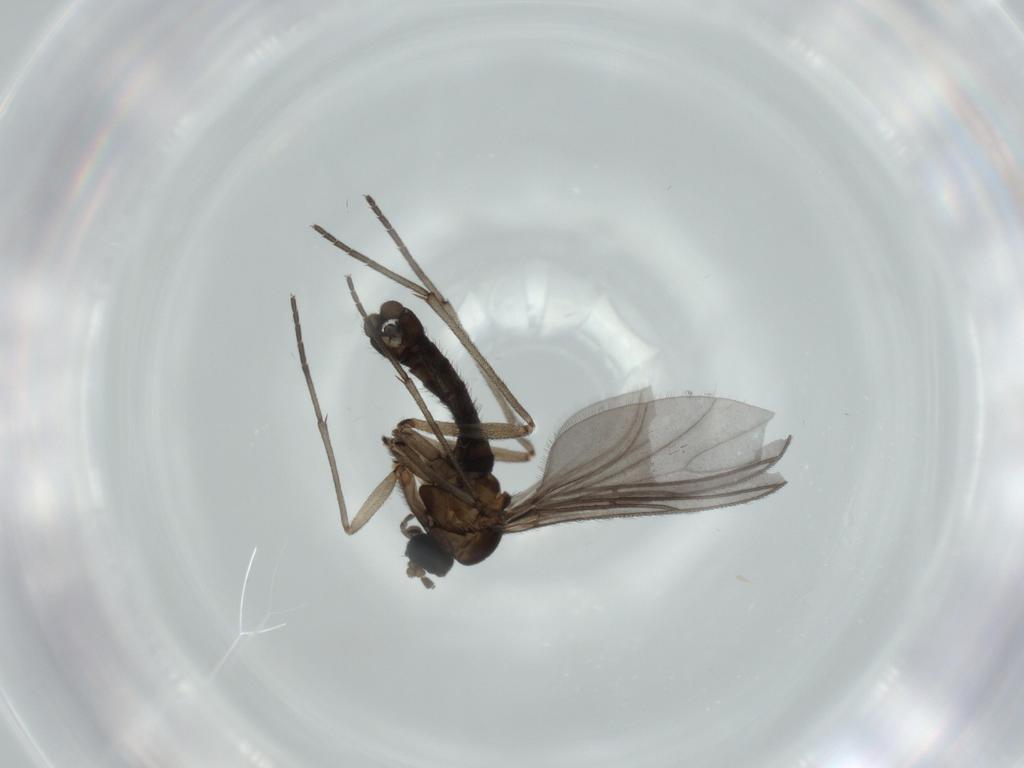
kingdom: Animalia
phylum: Arthropoda
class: Insecta
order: Diptera
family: Sciaridae
